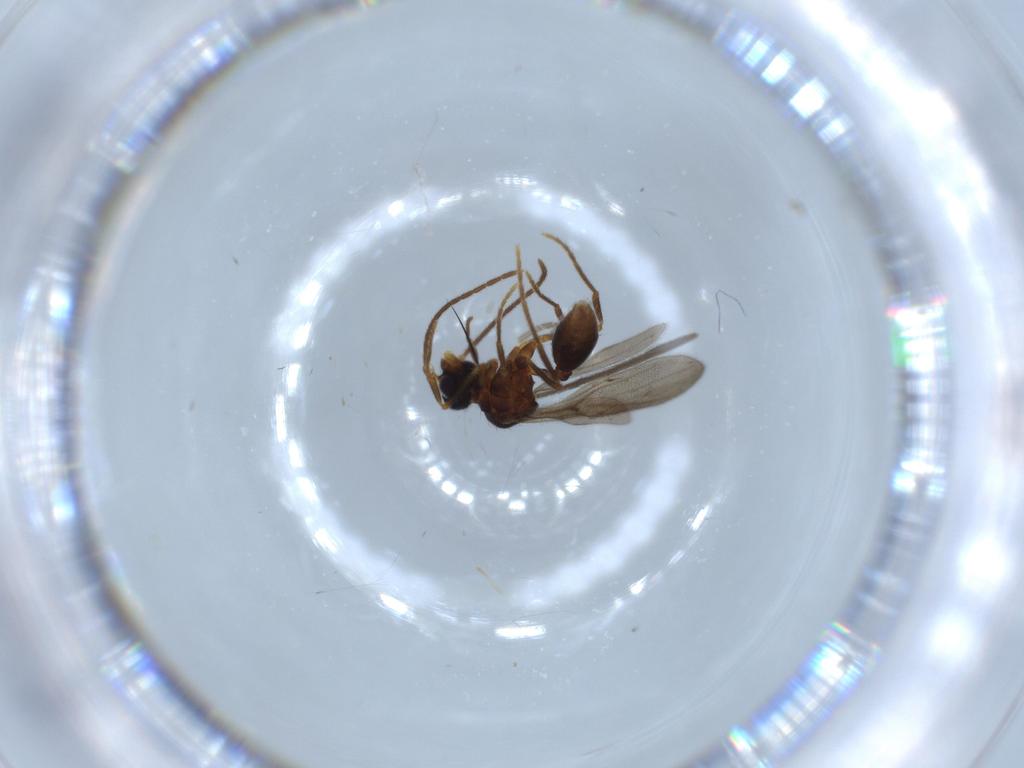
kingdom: Animalia
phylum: Arthropoda
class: Insecta
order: Hymenoptera
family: Formicidae
